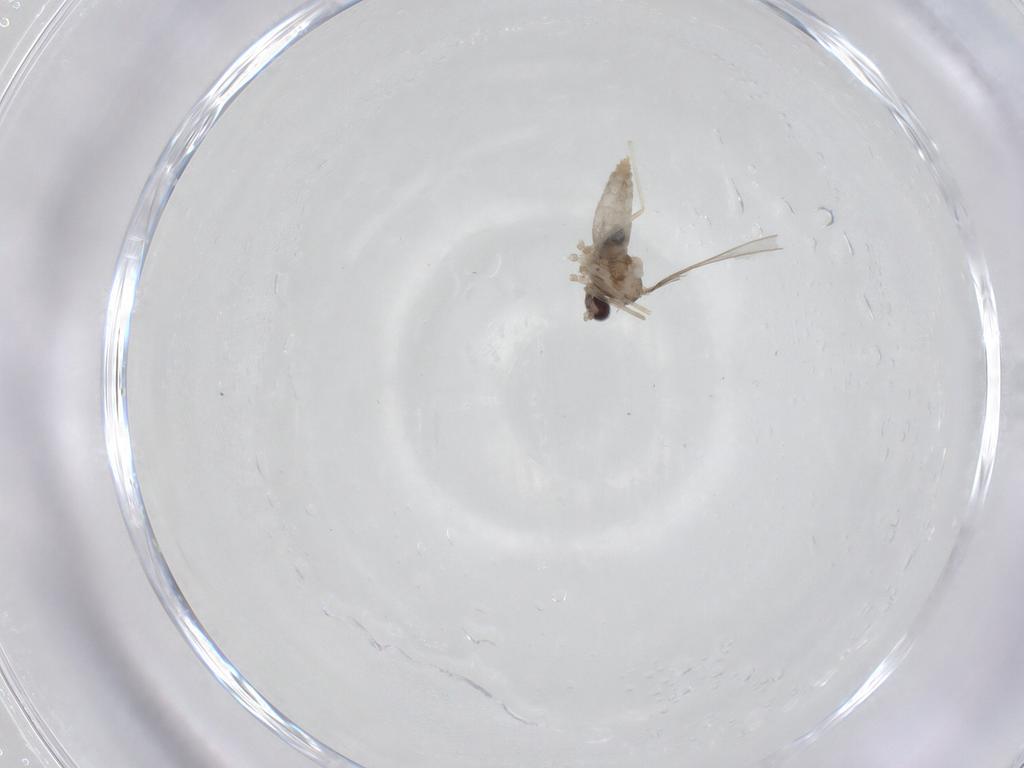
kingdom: Animalia
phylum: Arthropoda
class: Insecta
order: Diptera
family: Cecidomyiidae
